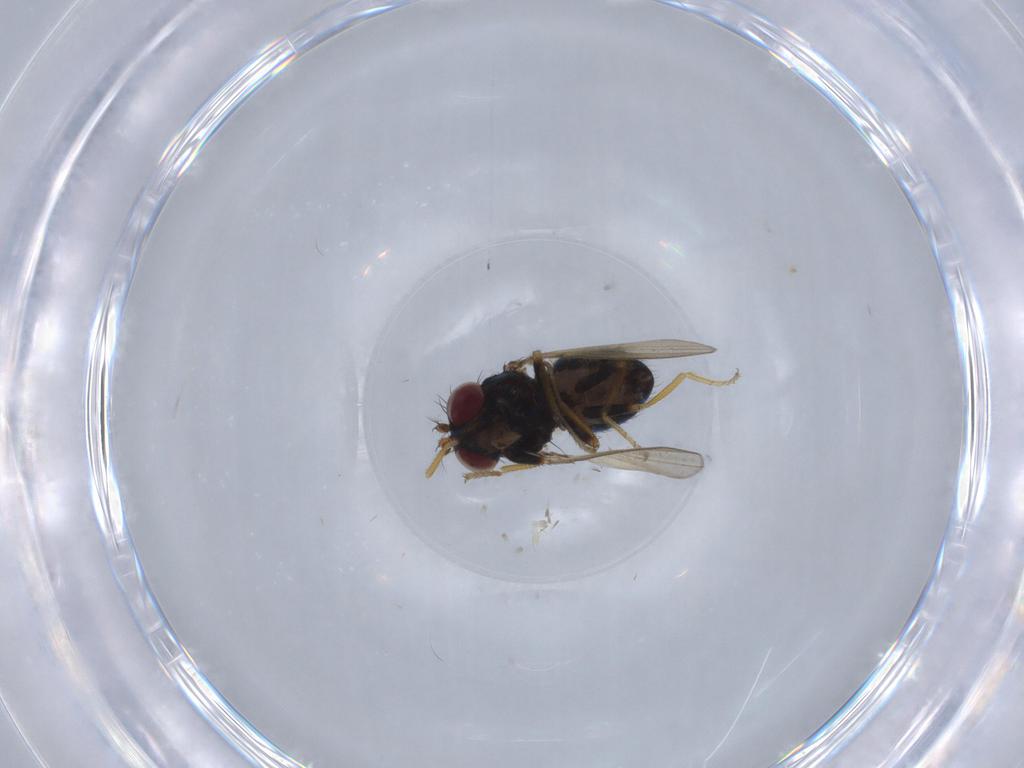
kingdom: Animalia
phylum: Arthropoda
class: Insecta
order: Diptera
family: Ephydridae
